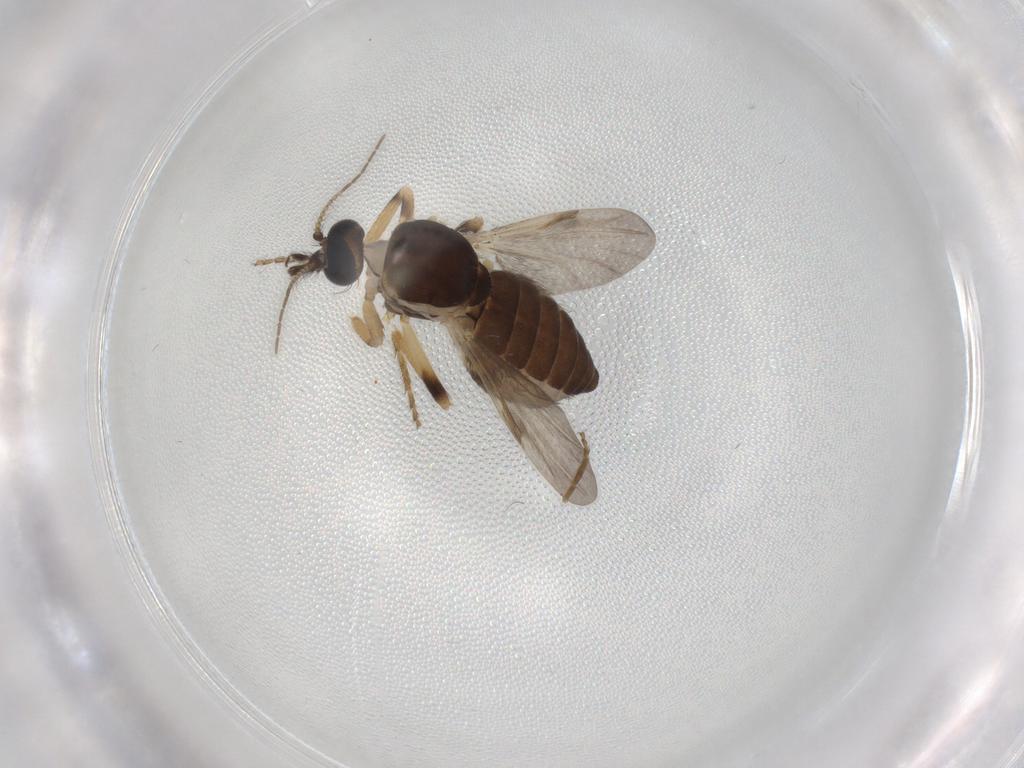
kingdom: Animalia
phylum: Arthropoda
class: Insecta
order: Diptera
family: Ceratopogonidae
